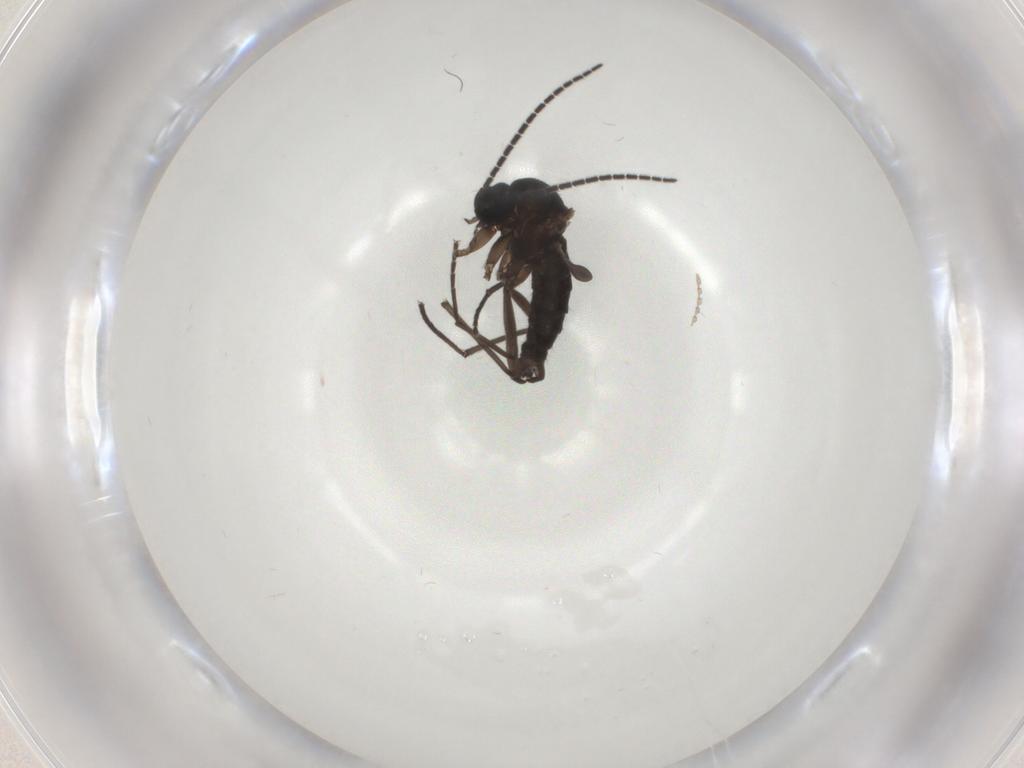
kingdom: Animalia
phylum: Arthropoda
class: Insecta
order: Diptera
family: Sciaridae
